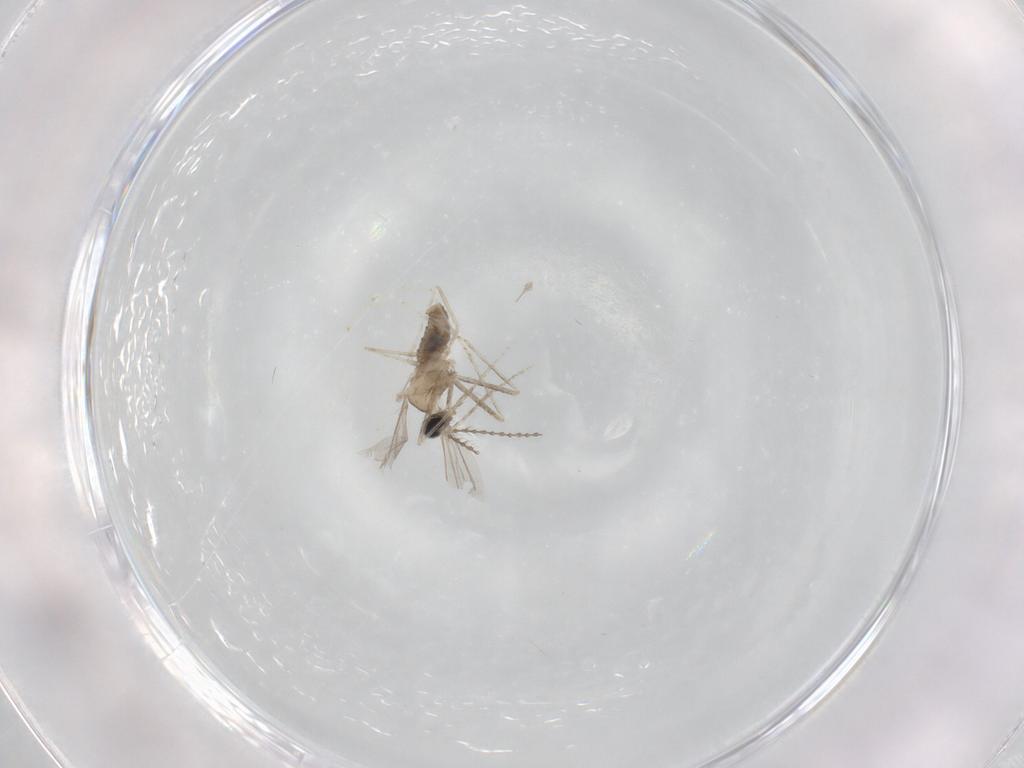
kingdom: Animalia
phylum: Arthropoda
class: Insecta
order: Diptera
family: Cecidomyiidae
